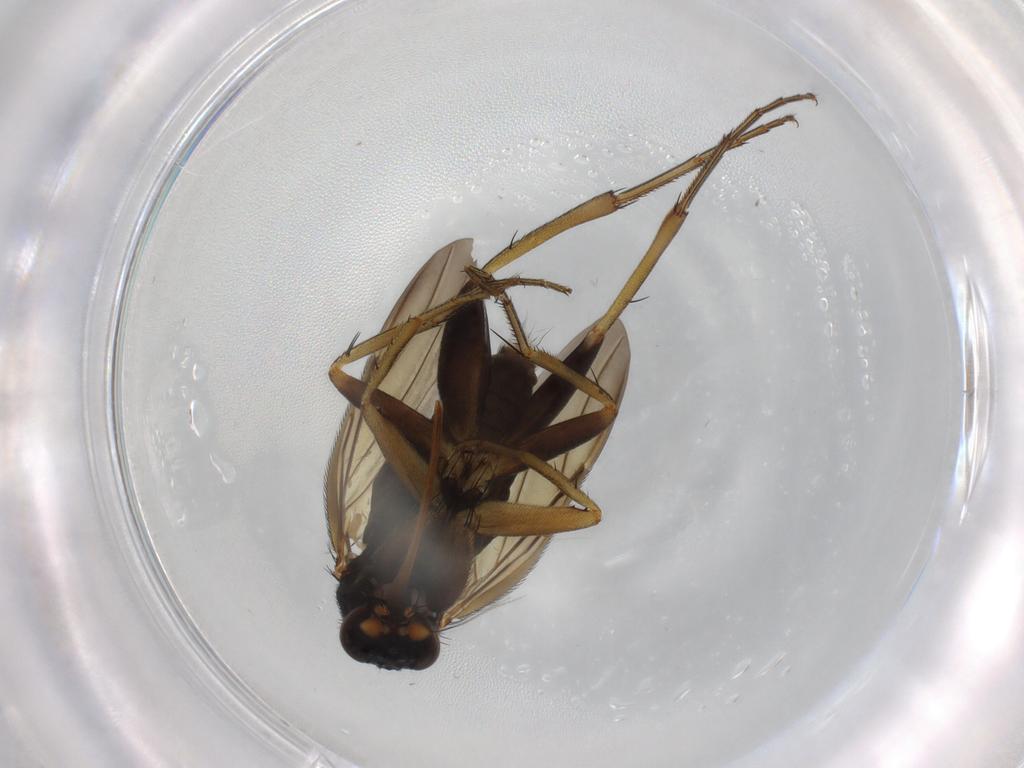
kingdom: Animalia
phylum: Arthropoda
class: Insecta
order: Diptera
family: Phoridae
